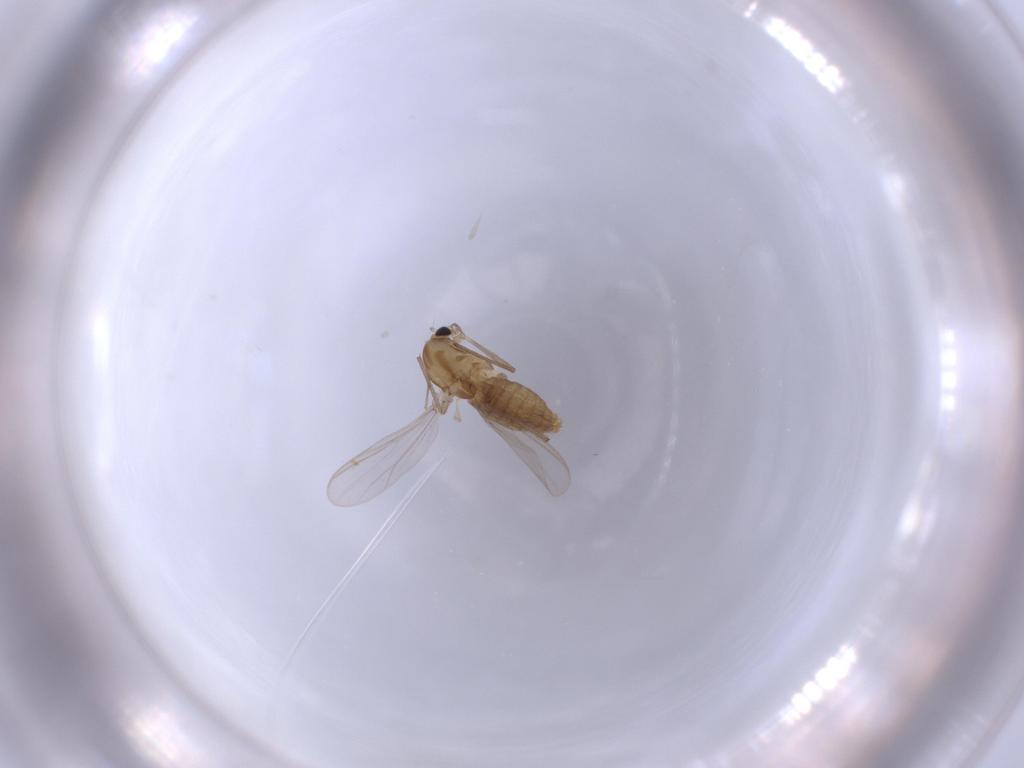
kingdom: Animalia
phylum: Arthropoda
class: Insecta
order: Diptera
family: Chironomidae
